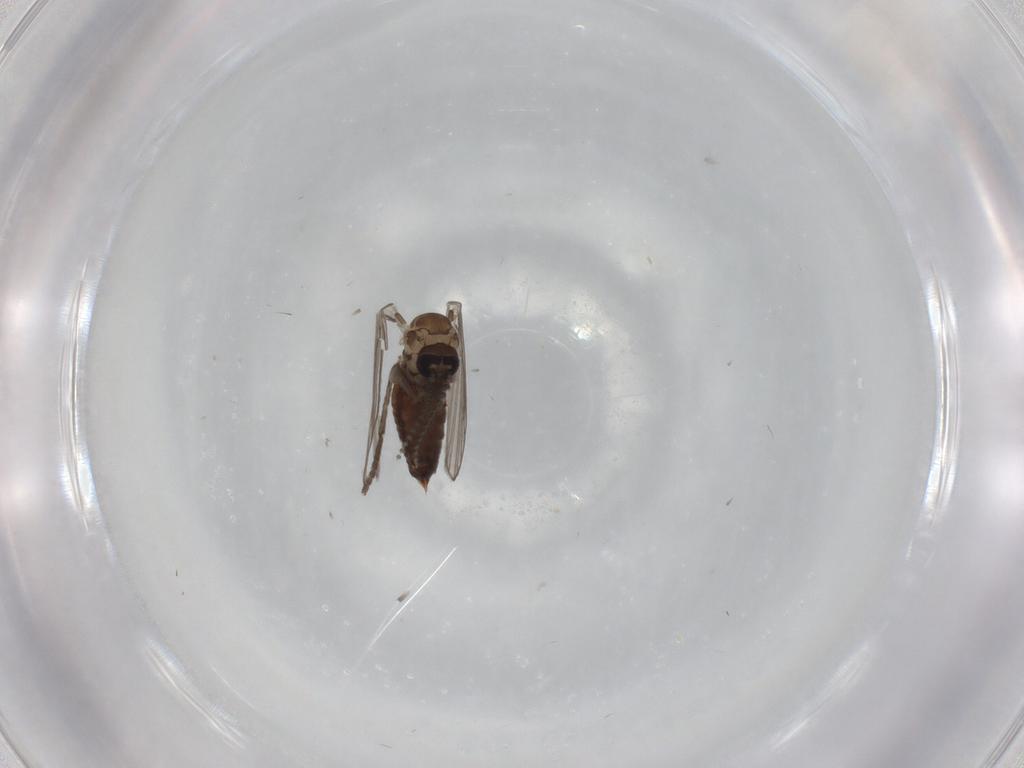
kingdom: Animalia
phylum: Arthropoda
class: Insecta
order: Diptera
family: Psychodidae
